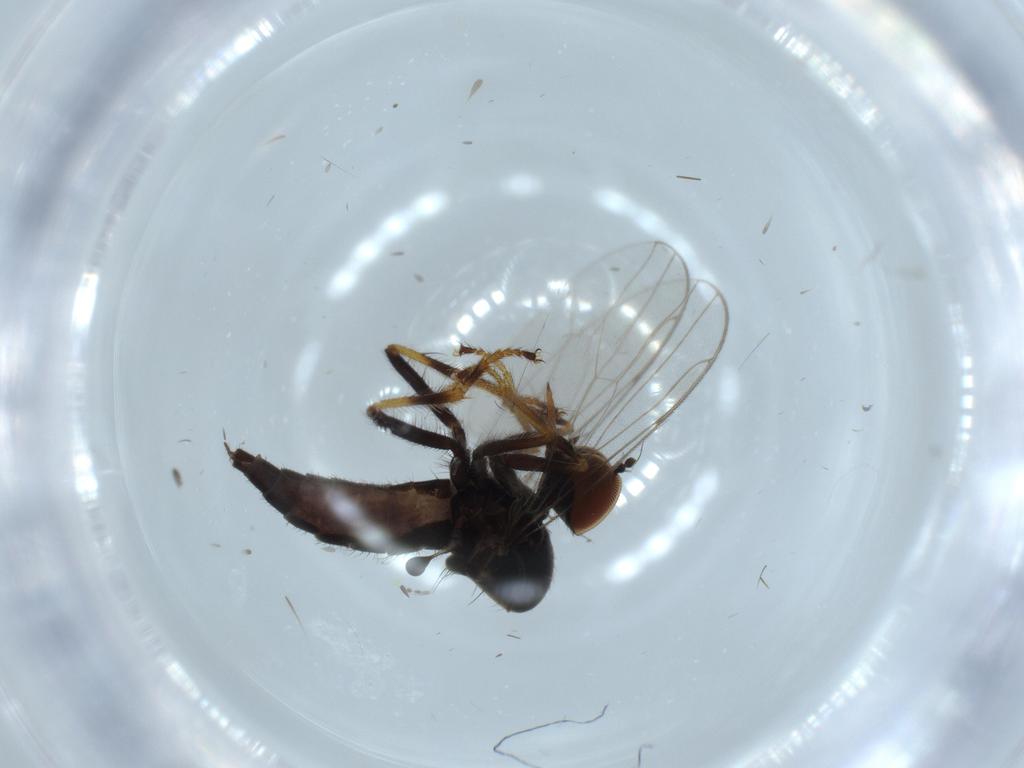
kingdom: Animalia
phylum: Arthropoda
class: Insecta
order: Diptera
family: Hybotidae
